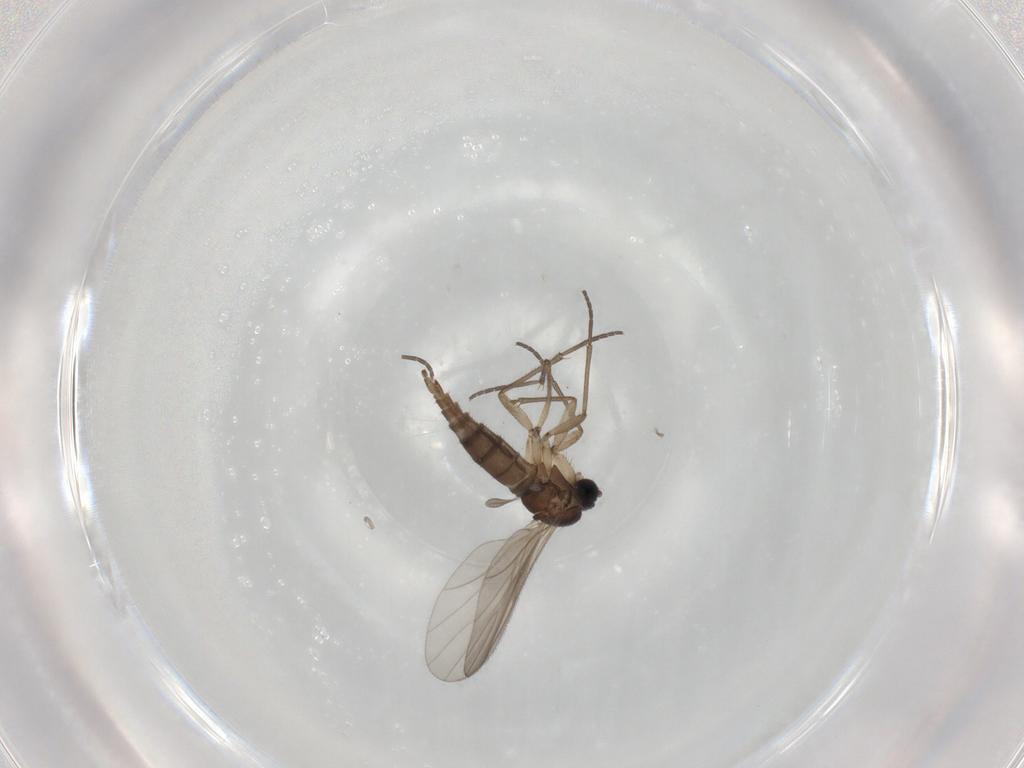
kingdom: Animalia
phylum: Arthropoda
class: Insecta
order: Diptera
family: Sciaridae
